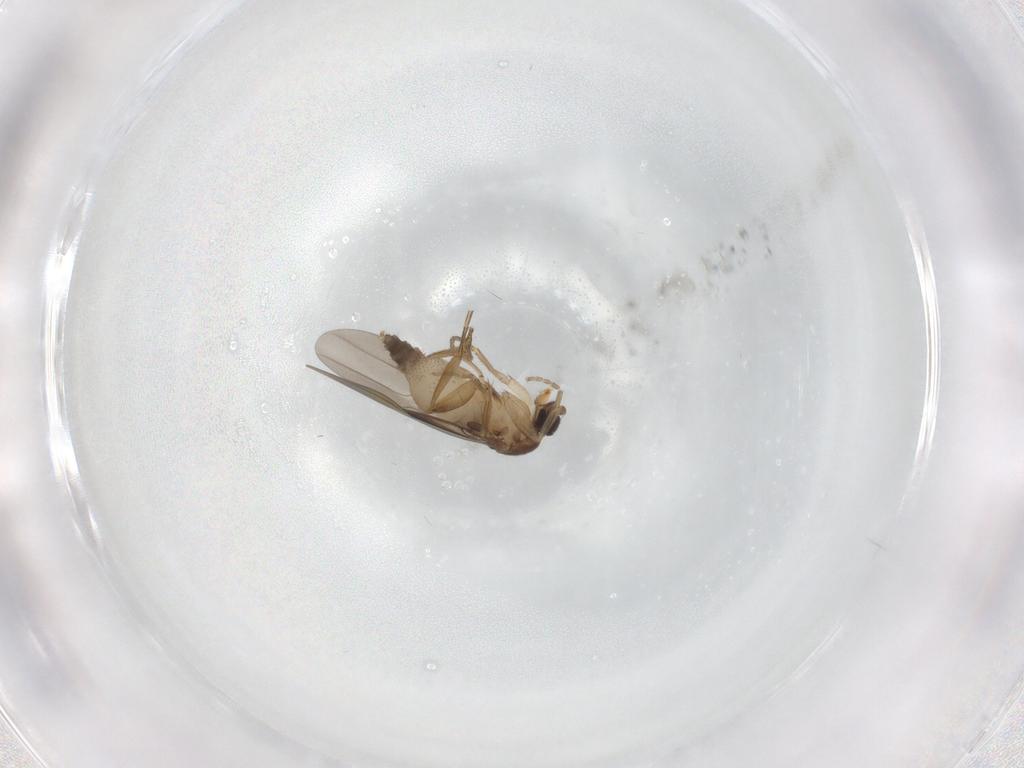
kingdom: Animalia
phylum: Arthropoda
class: Insecta
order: Diptera
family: Phoridae
